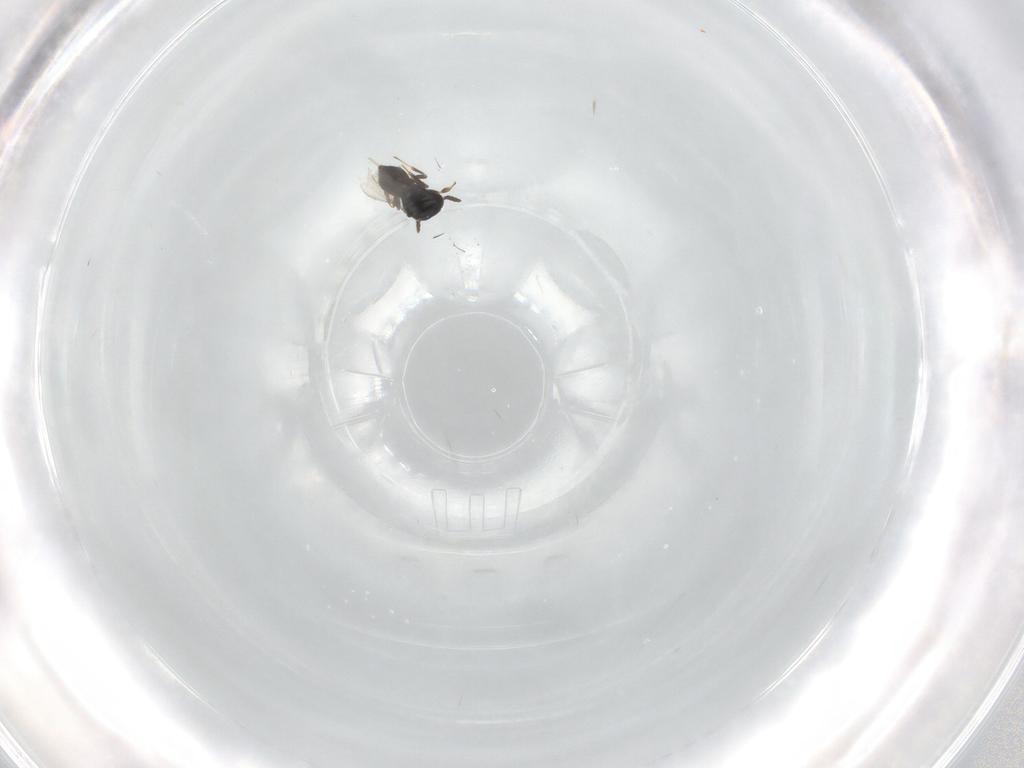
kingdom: Animalia
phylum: Arthropoda
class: Insecta
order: Hymenoptera
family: Scelionidae
